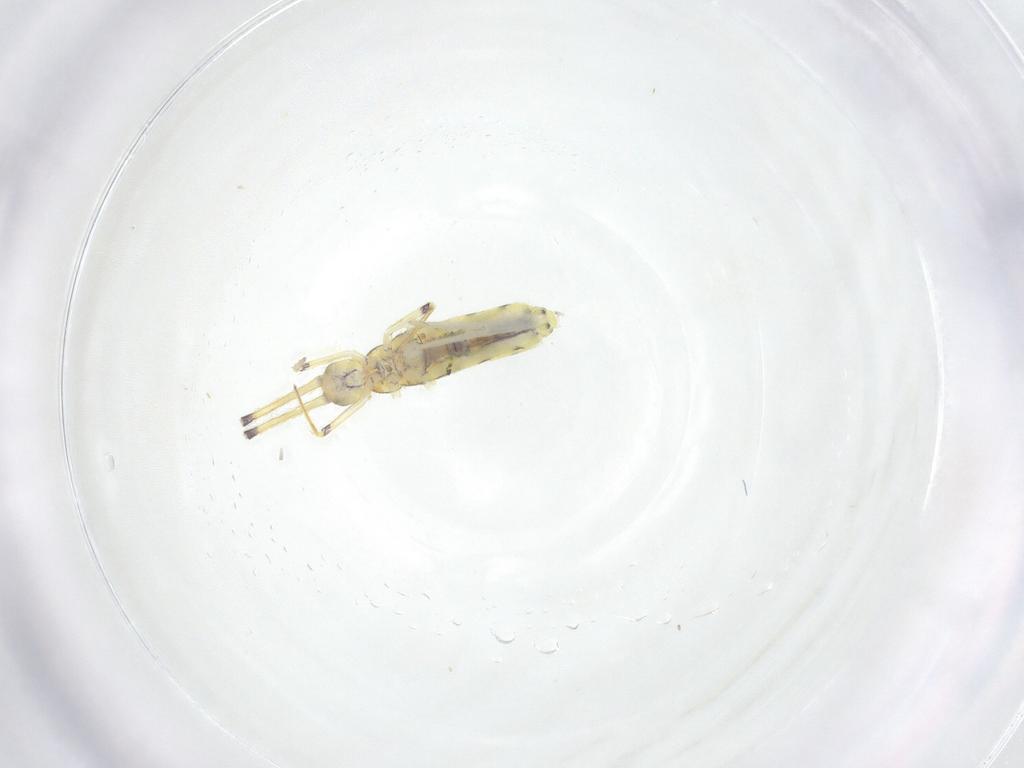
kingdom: Animalia
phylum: Arthropoda
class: Collembola
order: Entomobryomorpha
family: Entomobryidae
